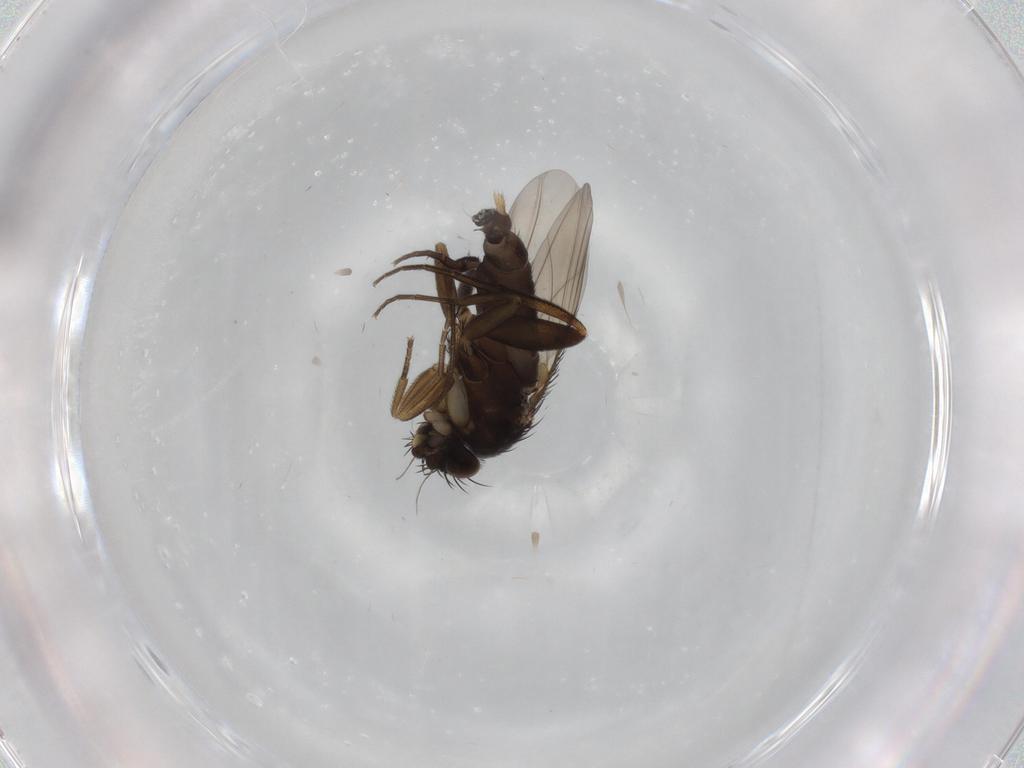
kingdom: Animalia
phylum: Arthropoda
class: Insecta
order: Diptera
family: Phoridae
